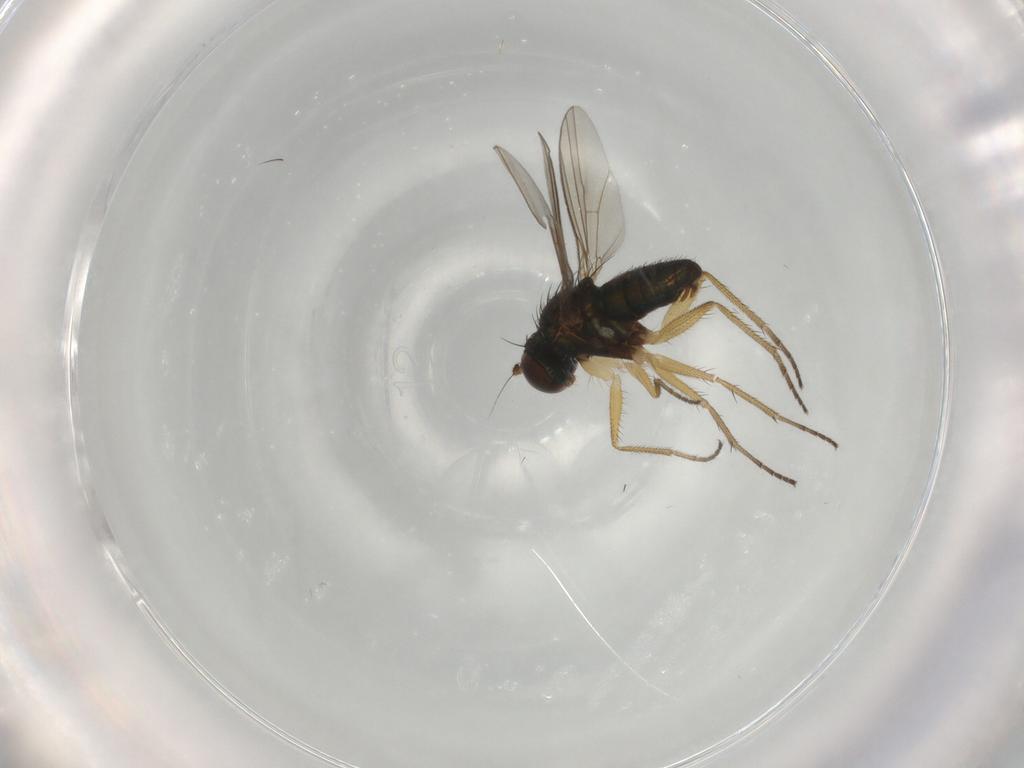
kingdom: Animalia
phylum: Arthropoda
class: Insecta
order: Diptera
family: Dolichopodidae
